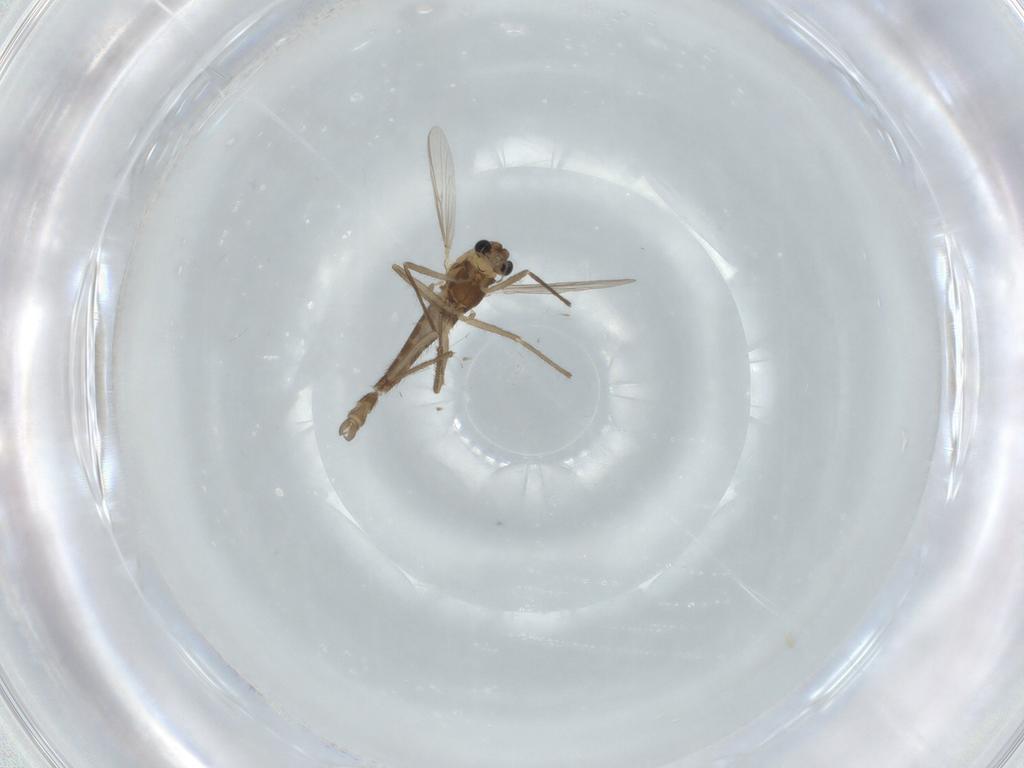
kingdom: Animalia
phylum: Arthropoda
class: Insecta
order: Diptera
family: Chironomidae
